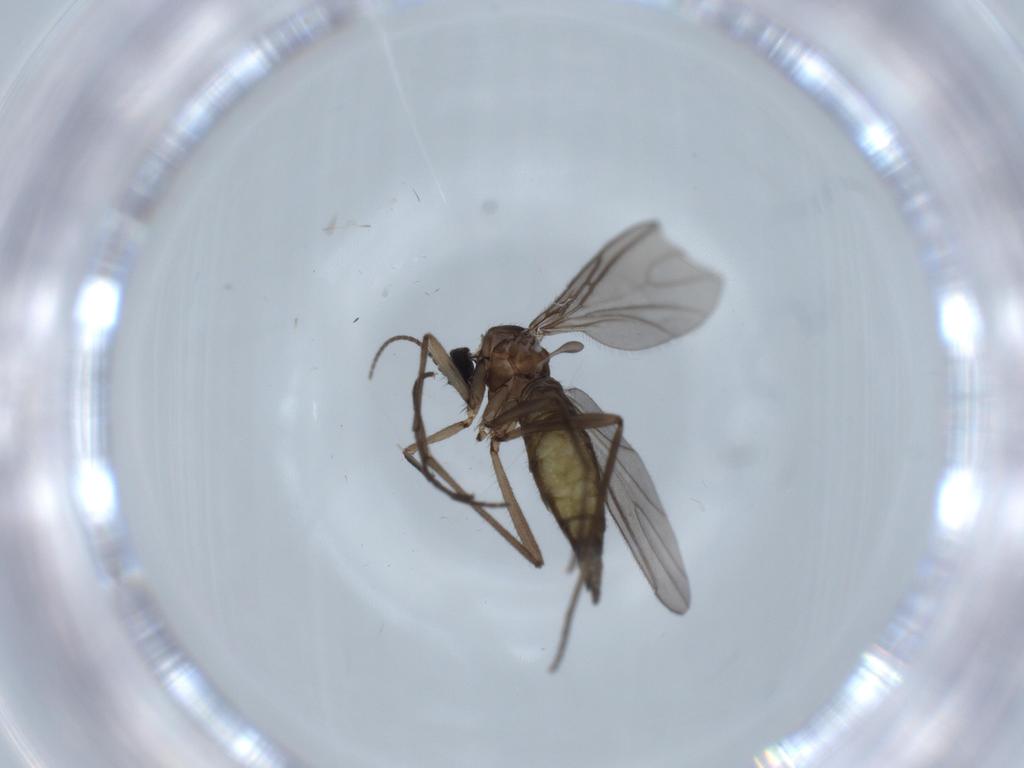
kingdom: Animalia
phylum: Arthropoda
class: Insecta
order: Diptera
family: Sciaridae
